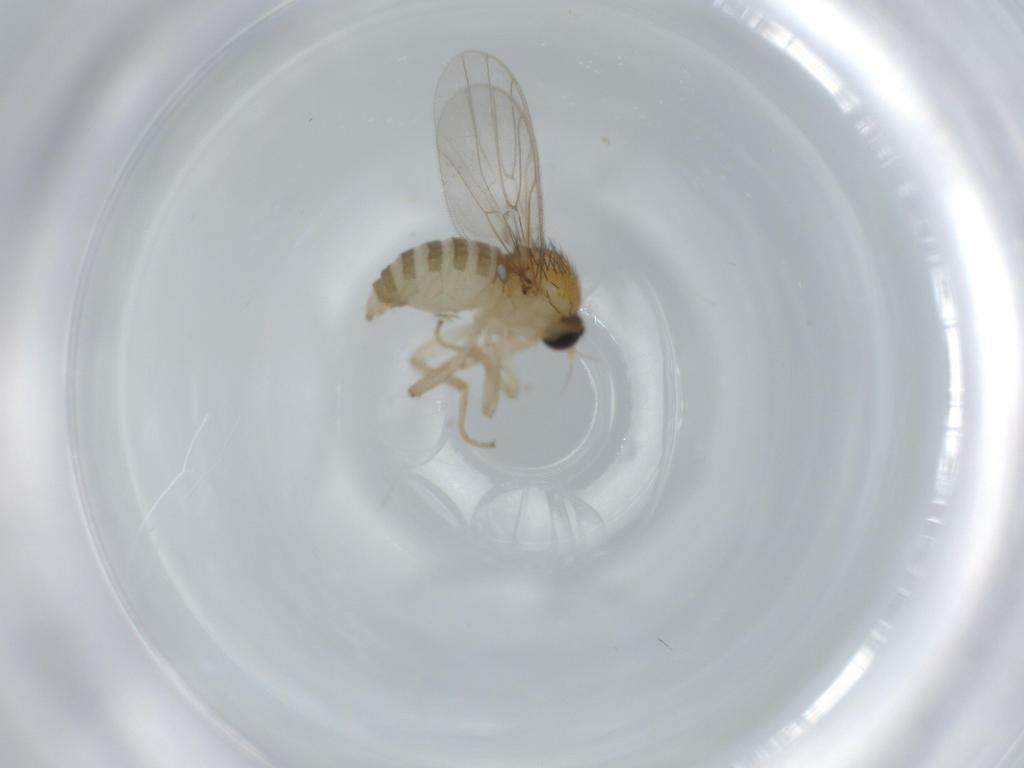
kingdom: Animalia
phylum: Arthropoda
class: Insecta
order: Diptera
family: Hybotidae
